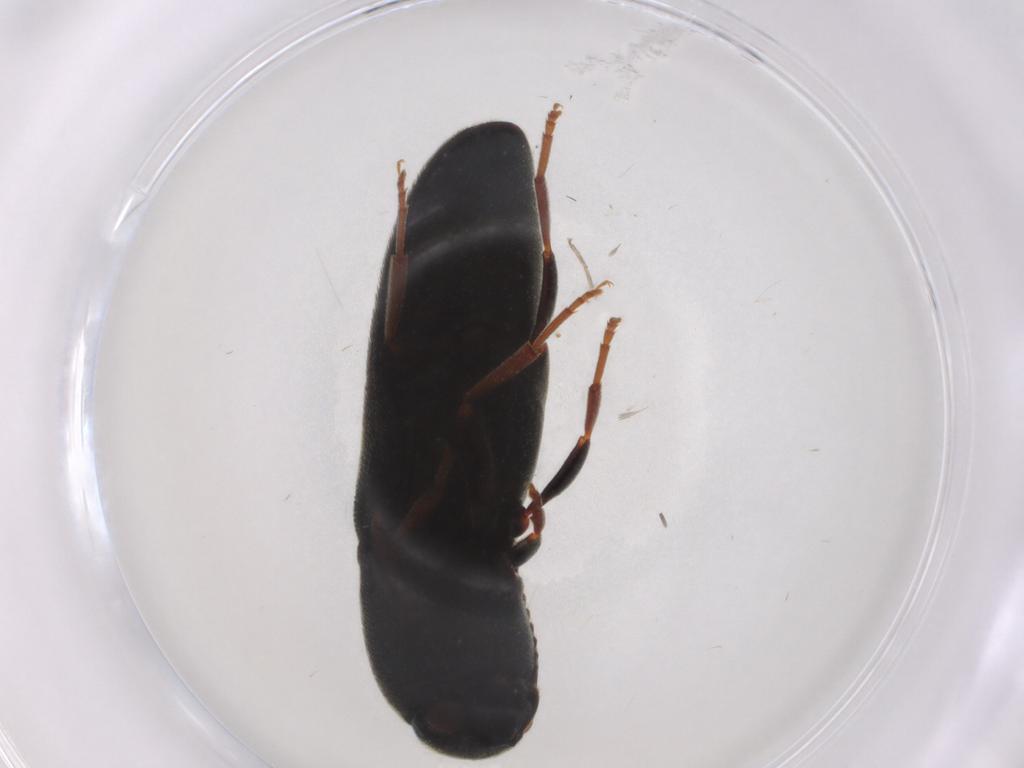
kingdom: Animalia
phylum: Arthropoda
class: Insecta
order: Coleoptera
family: Eucnemidae
